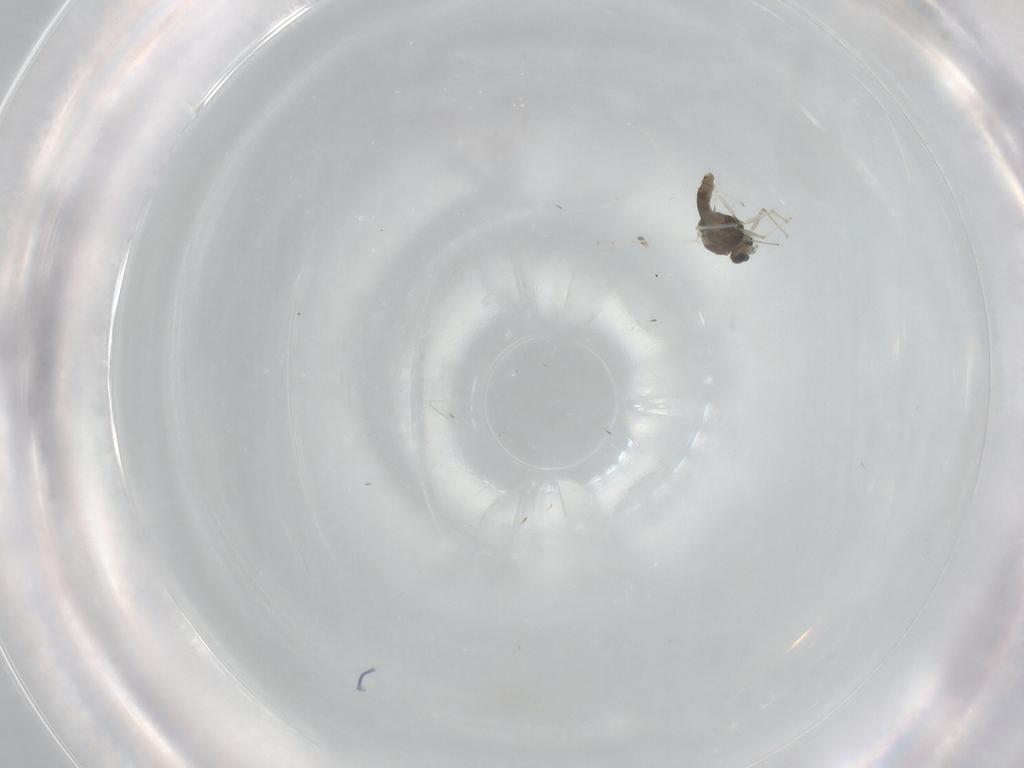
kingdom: Animalia
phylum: Arthropoda
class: Insecta
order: Diptera
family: Chironomidae
